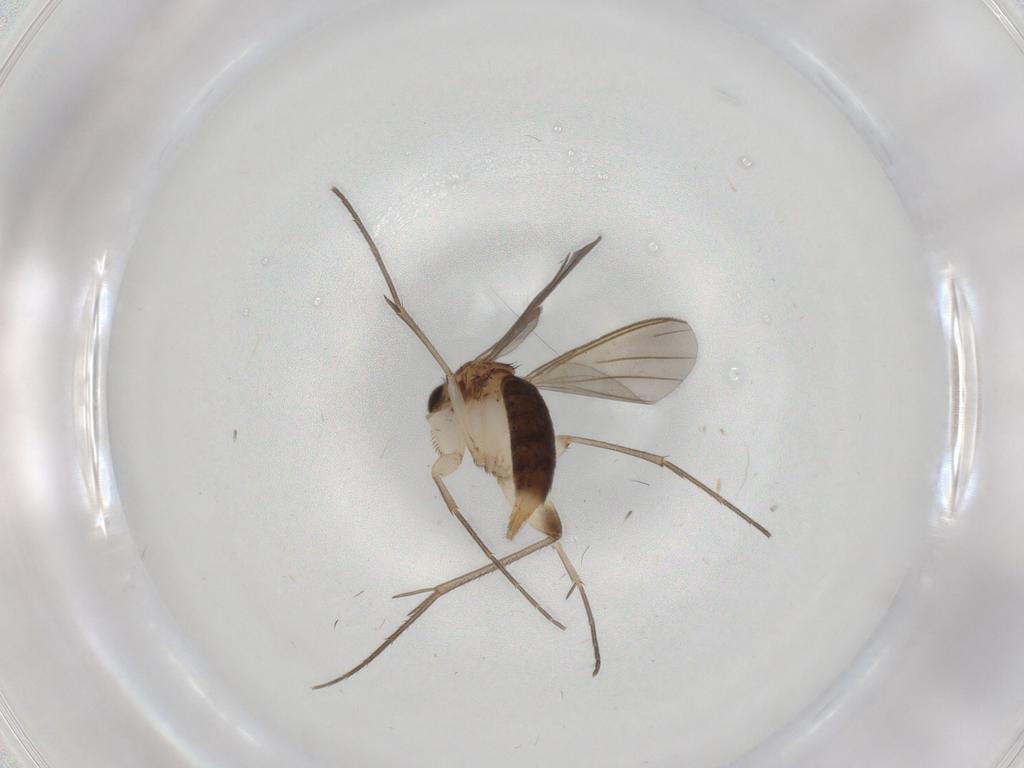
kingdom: Animalia
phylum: Arthropoda
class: Insecta
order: Diptera
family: Mycetophilidae
